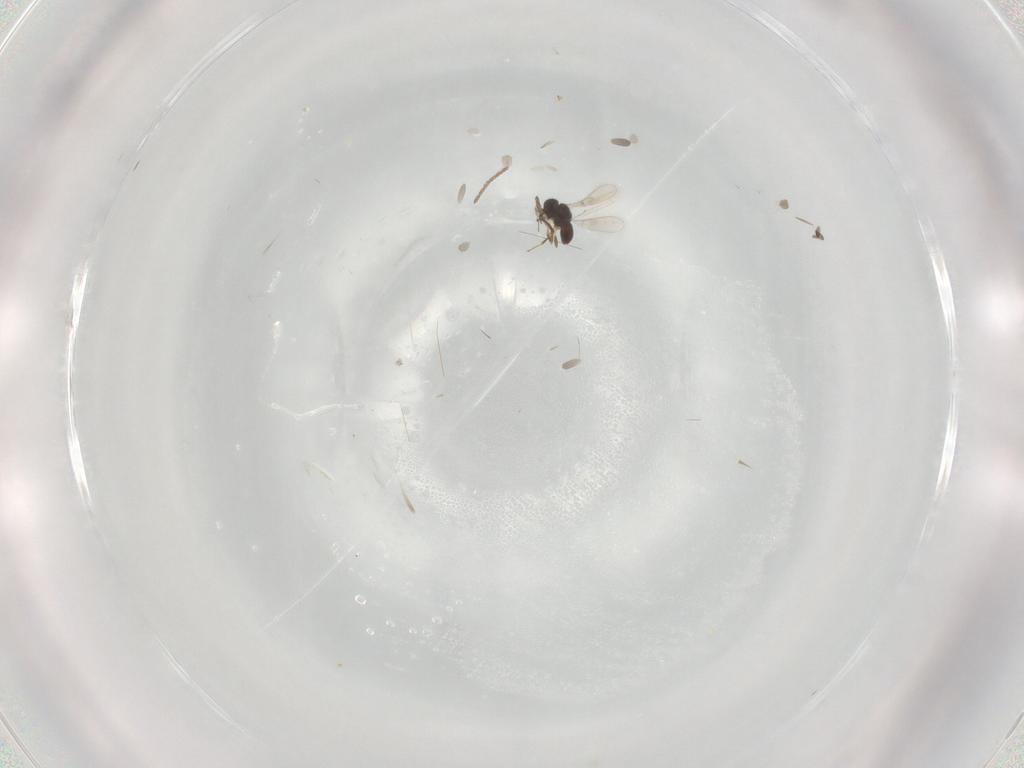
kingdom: Animalia
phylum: Arthropoda
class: Insecta
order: Hymenoptera
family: Scelionidae
